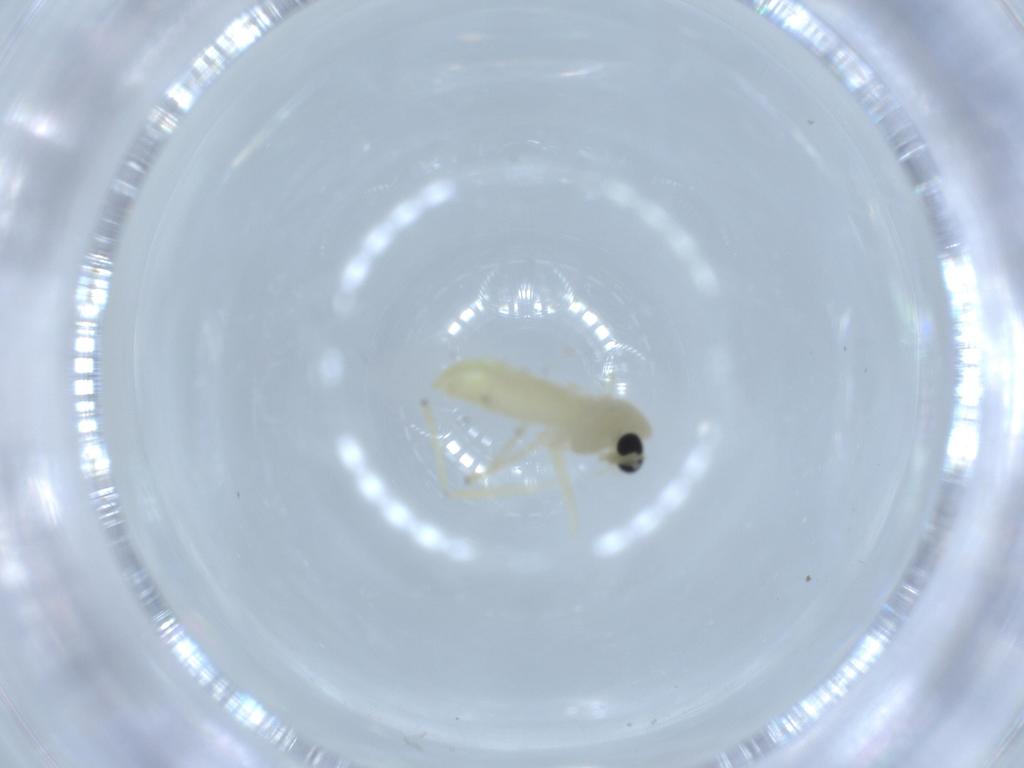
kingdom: Animalia
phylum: Arthropoda
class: Insecta
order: Diptera
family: Chironomidae
